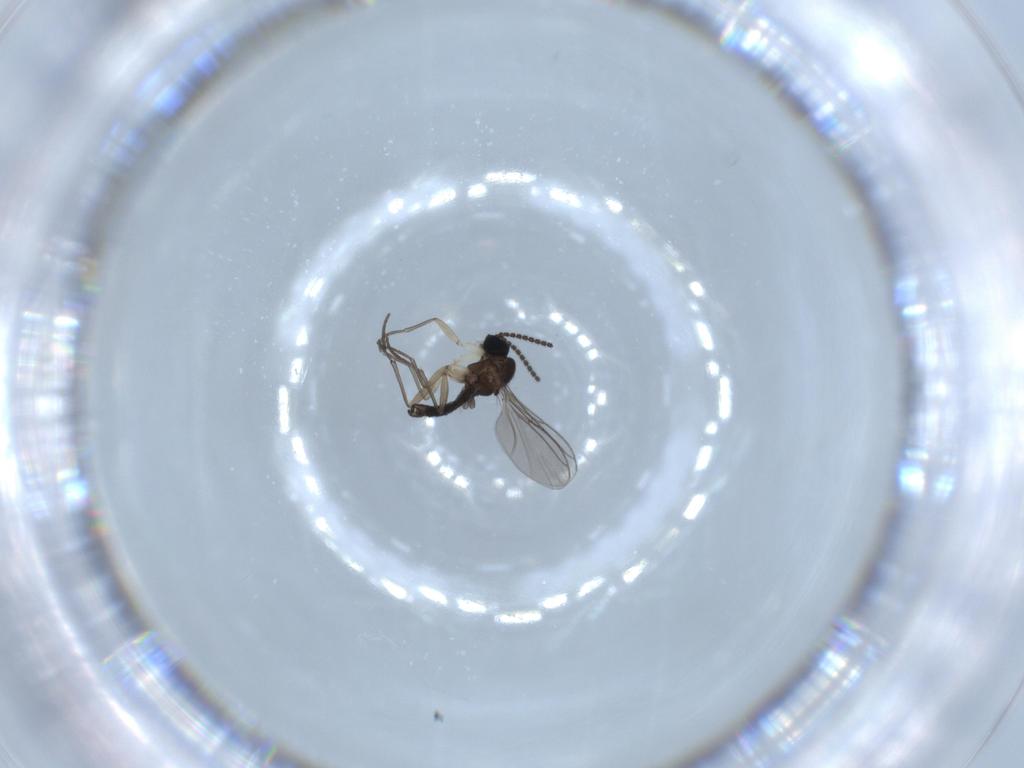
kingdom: Animalia
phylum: Arthropoda
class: Insecta
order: Diptera
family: Sciaridae
